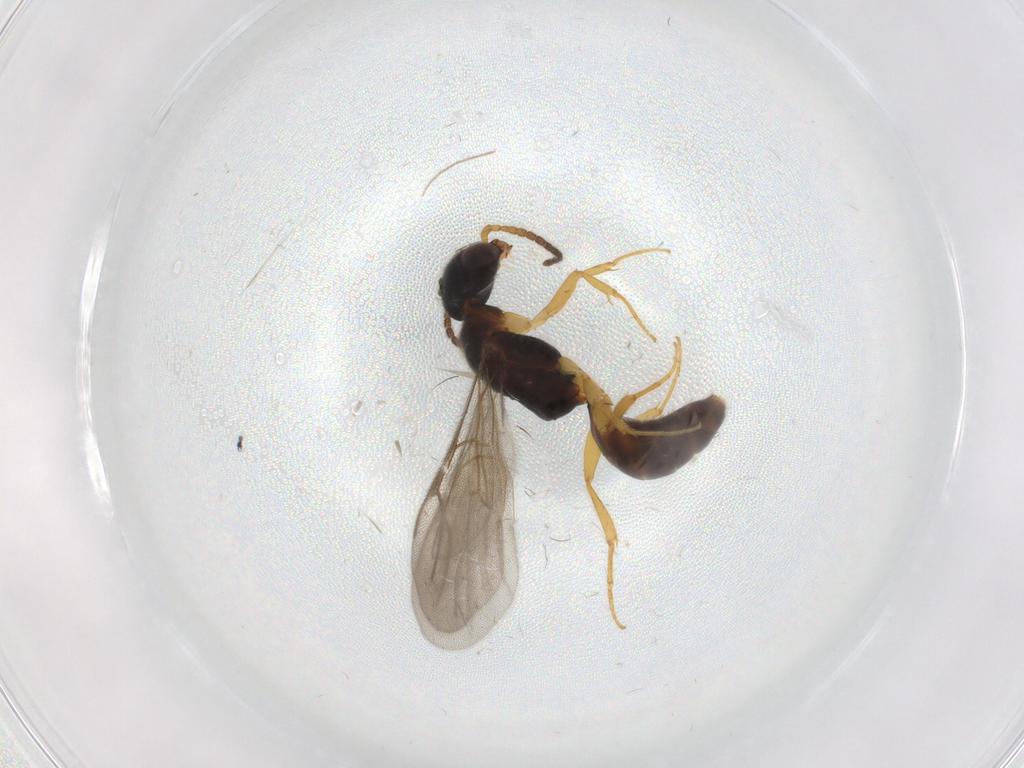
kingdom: Animalia
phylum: Arthropoda
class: Insecta
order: Hymenoptera
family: Bethylidae
